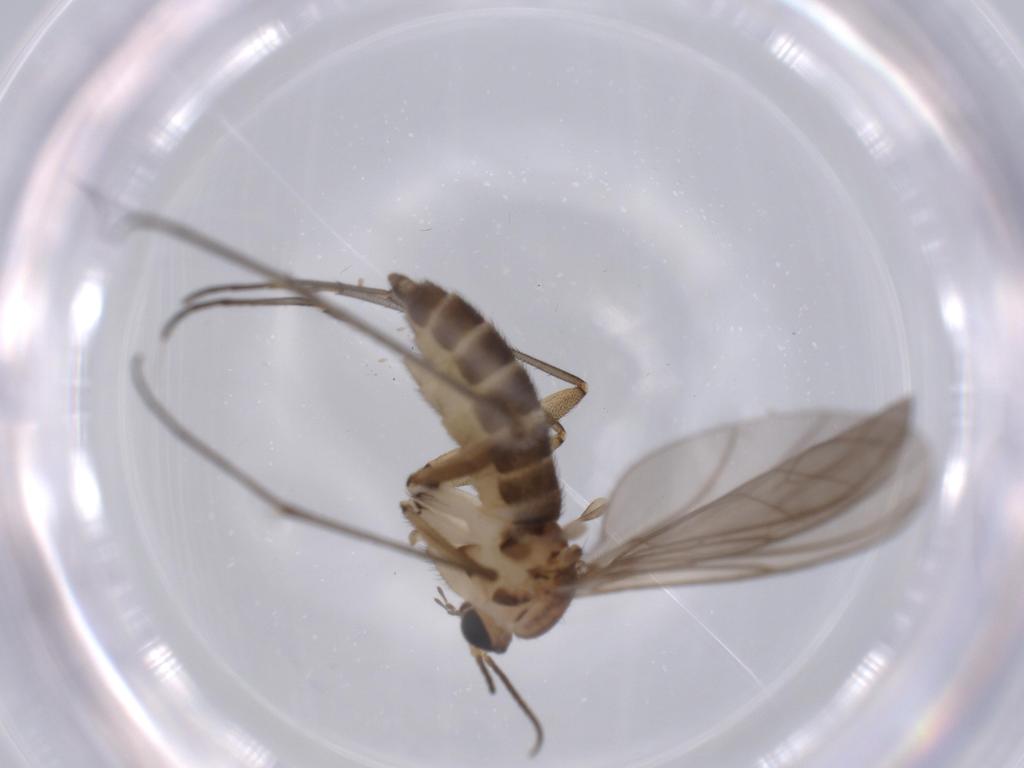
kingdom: Animalia
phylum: Arthropoda
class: Insecta
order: Diptera
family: Sciaridae
